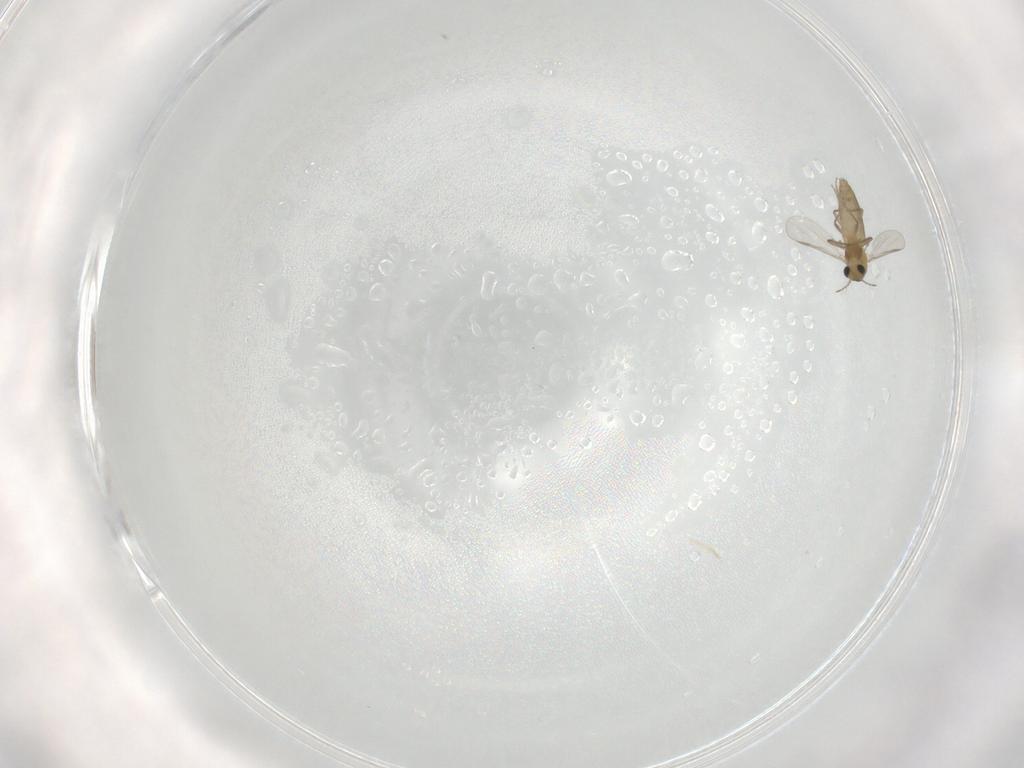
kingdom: Animalia
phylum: Arthropoda
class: Insecta
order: Diptera
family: Chironomidae
